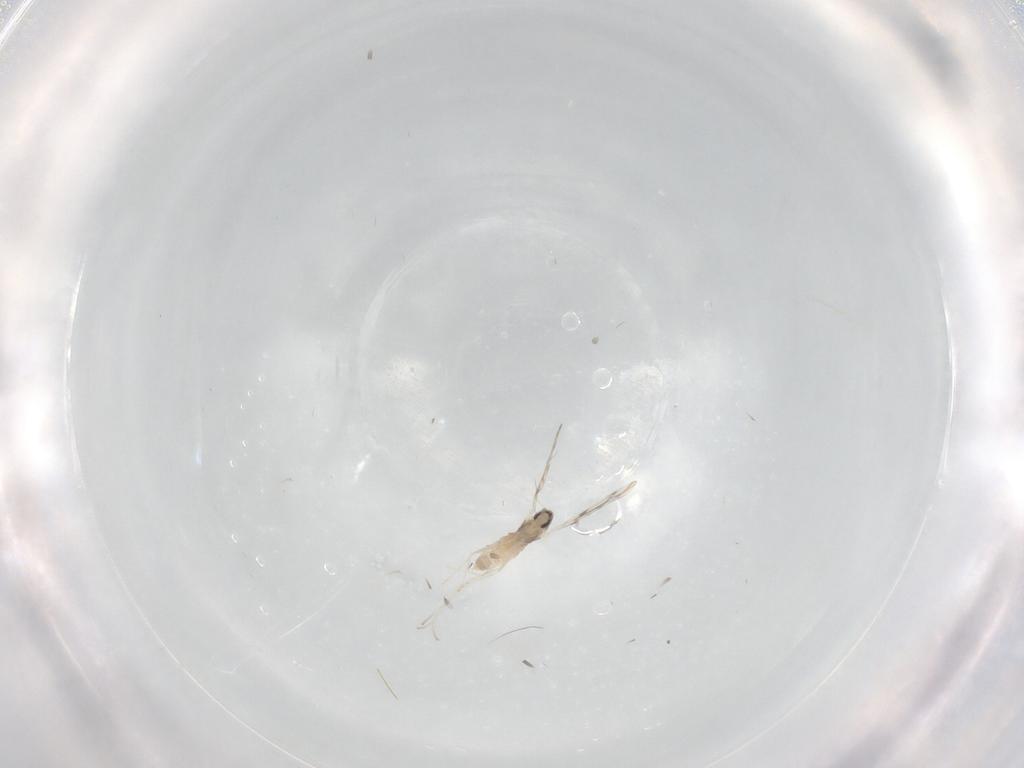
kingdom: Animalia
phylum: Arthropoda
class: Insecta
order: Diptera
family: Cecidomyiidae
